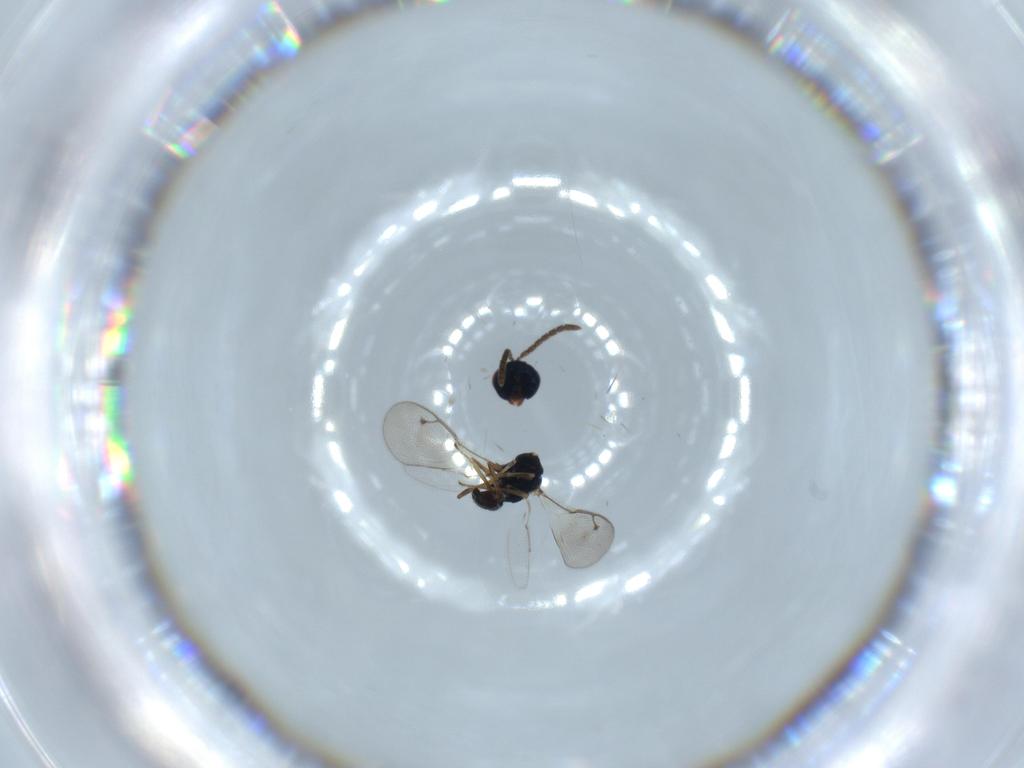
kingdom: Animalia
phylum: Arthropoda
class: Insecta
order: Hymenoptera
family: Pteromalidae
